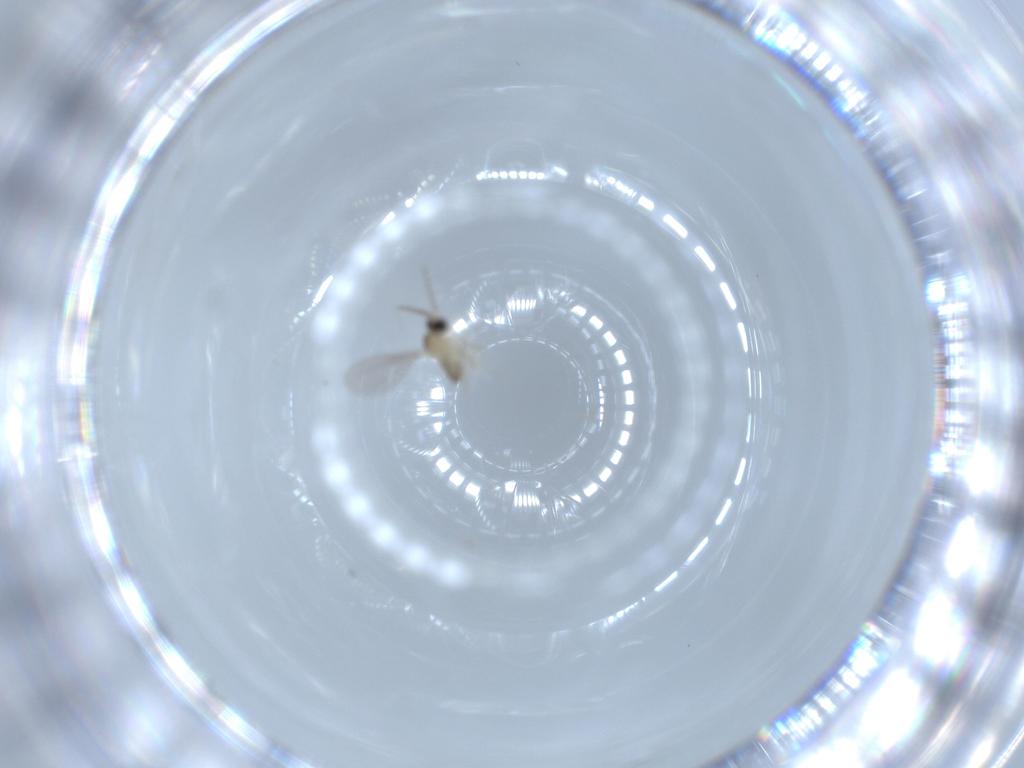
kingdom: Animalia
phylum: Arthropoda
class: Insecta
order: Diptera
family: Cecidomyiidae
